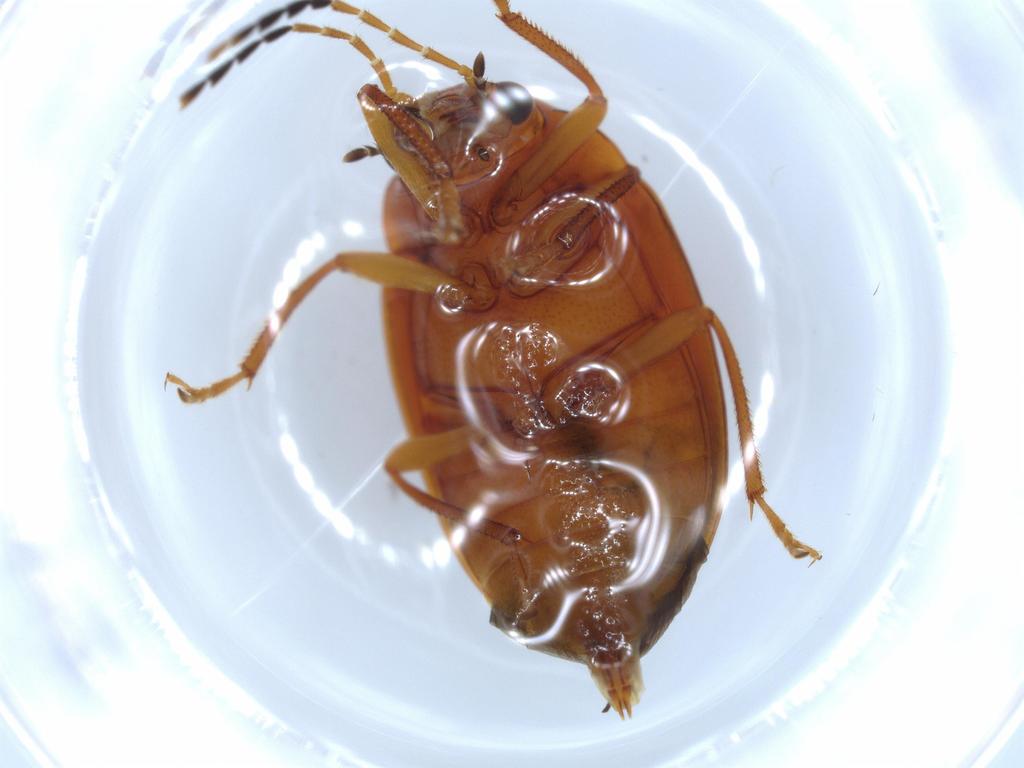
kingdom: Animalia
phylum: Arthropoda
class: Insecta
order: Coleoptera
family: Ptilodactylidae
